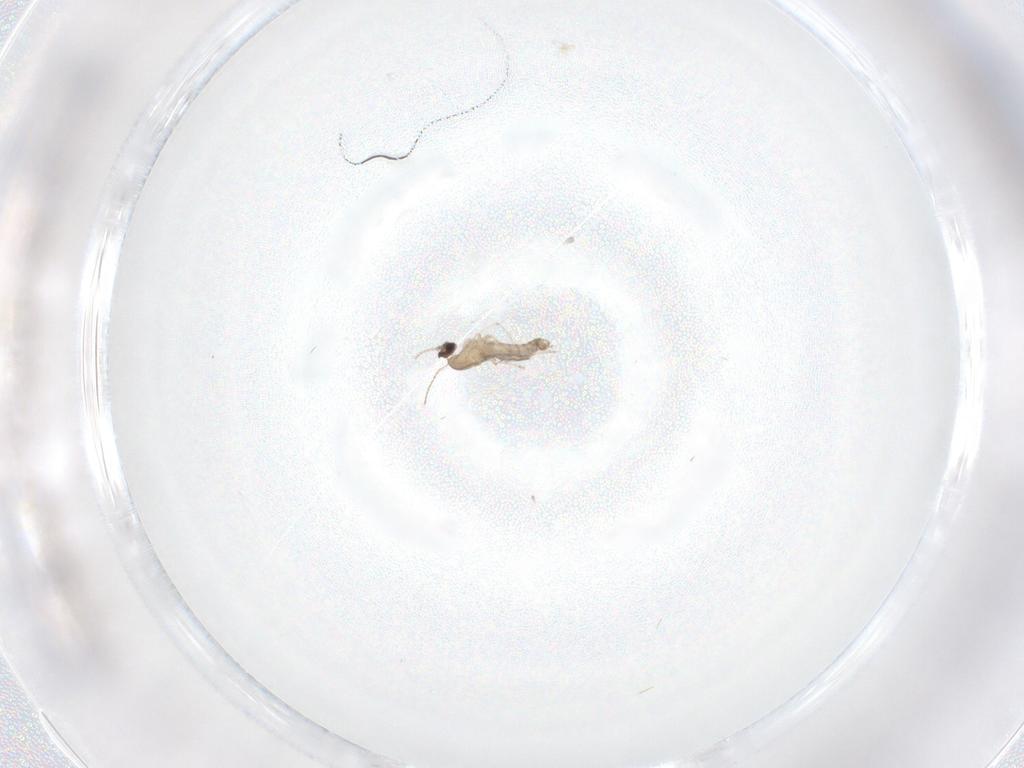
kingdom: Animalia
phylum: Arthropoda
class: Insecta
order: Diptera
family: Cecidomyiidae
